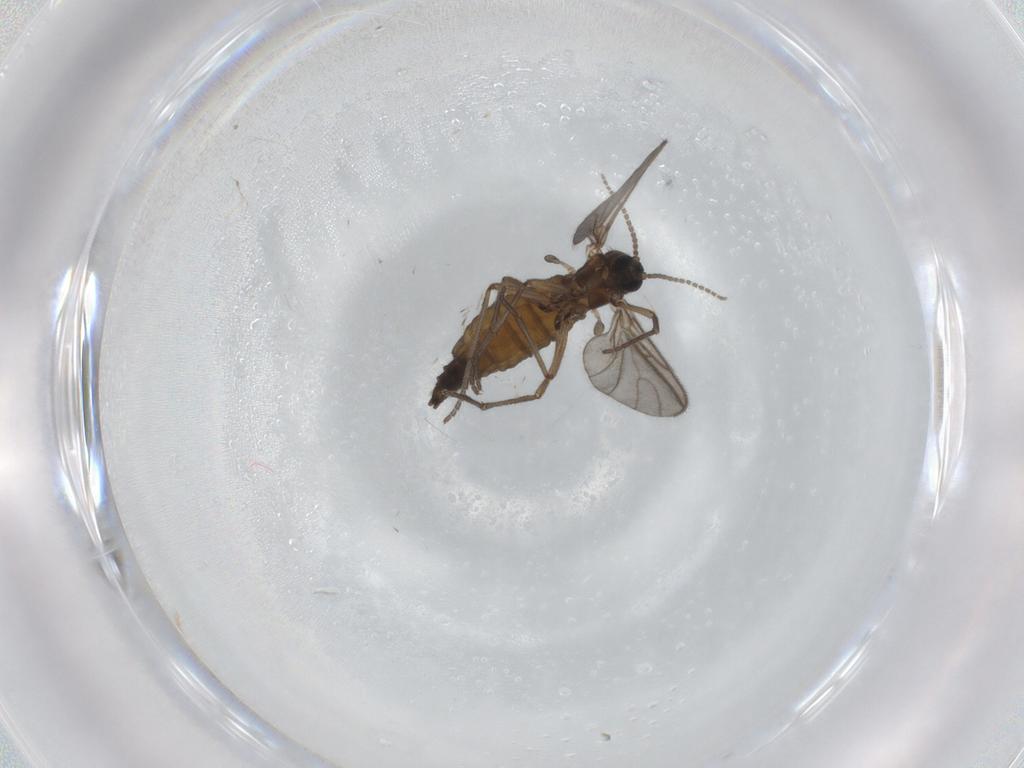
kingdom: Animalia
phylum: Arthropoda
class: Insecta
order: Diptera
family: Sciaridae
